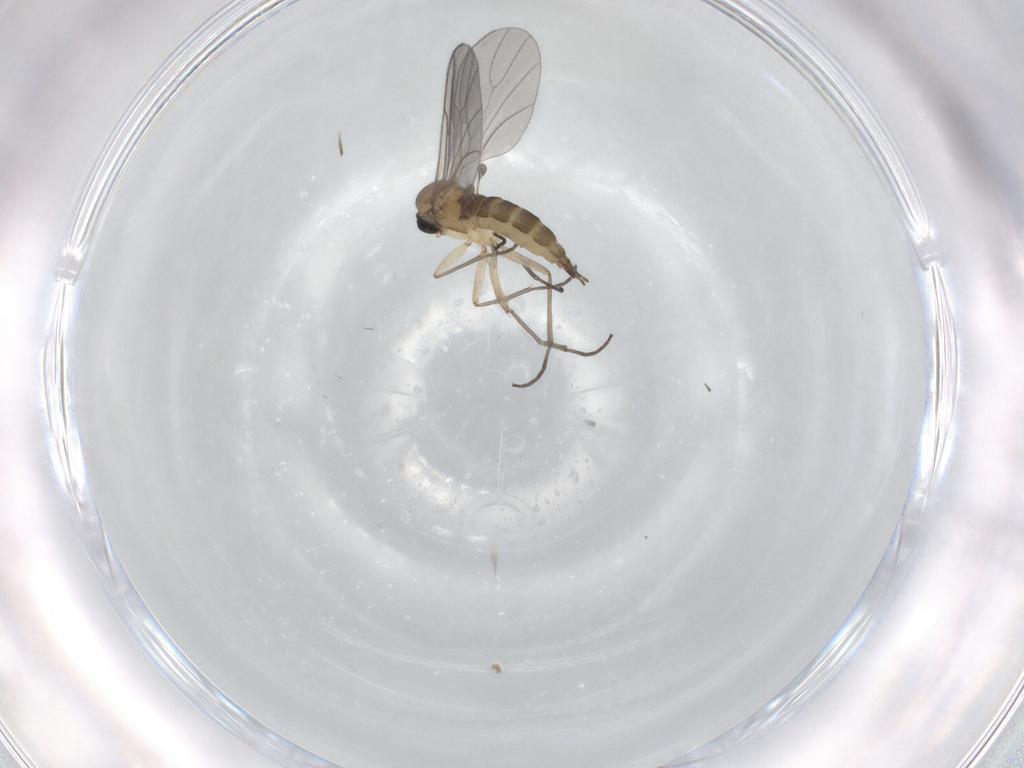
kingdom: Animalia
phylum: Arthropoda
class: Insecta
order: Diptera
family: Sciaridae
